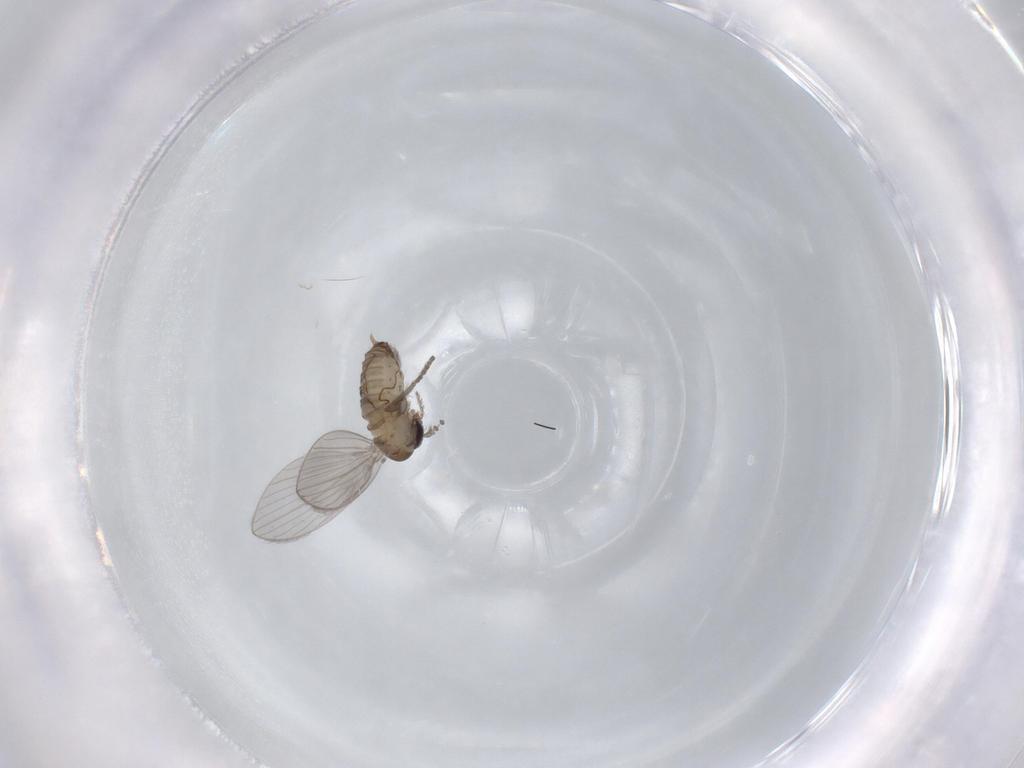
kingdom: Animalia
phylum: Arthropoda
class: Insecta
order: Diptera
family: Psychodidae
